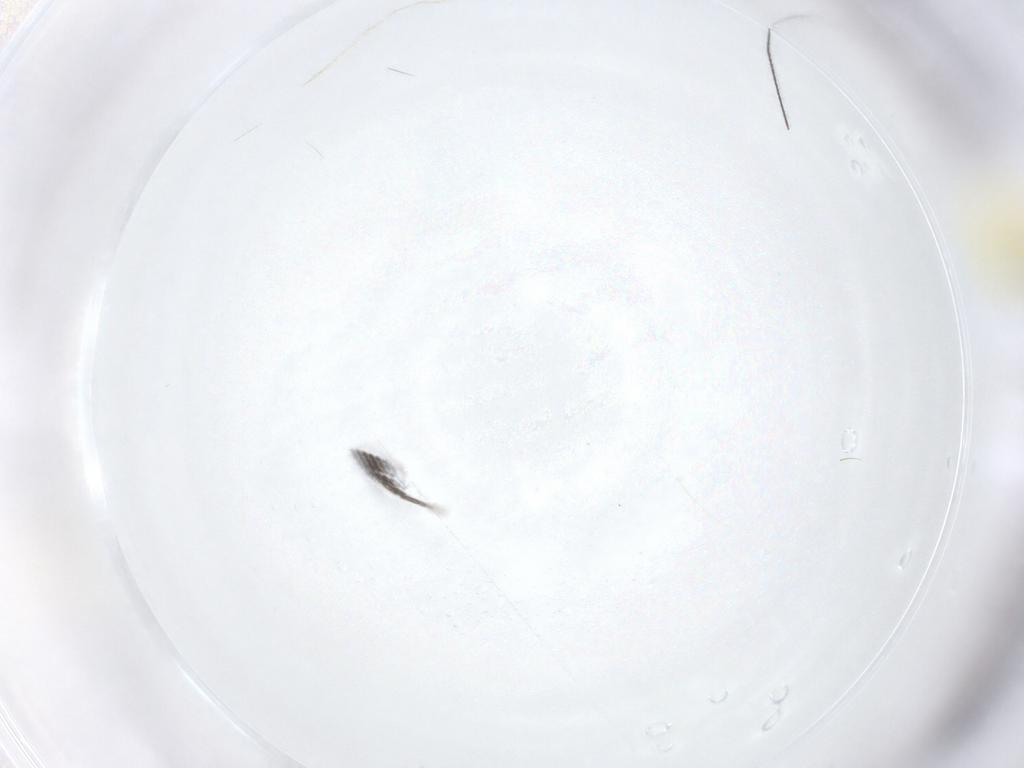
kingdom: Animalia
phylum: Arthropoda
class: Insecta
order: Lepidoptera
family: Erebidae
